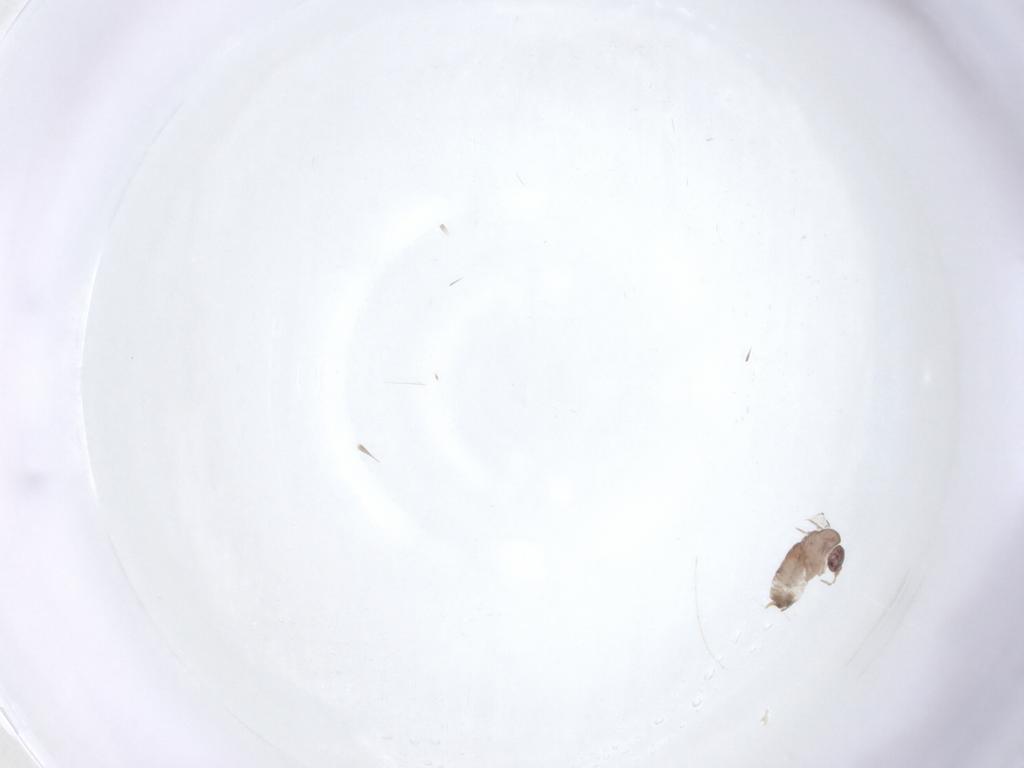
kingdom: Animalia
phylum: Arthropoda
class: Insecta
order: Diptera
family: Psychodidae
